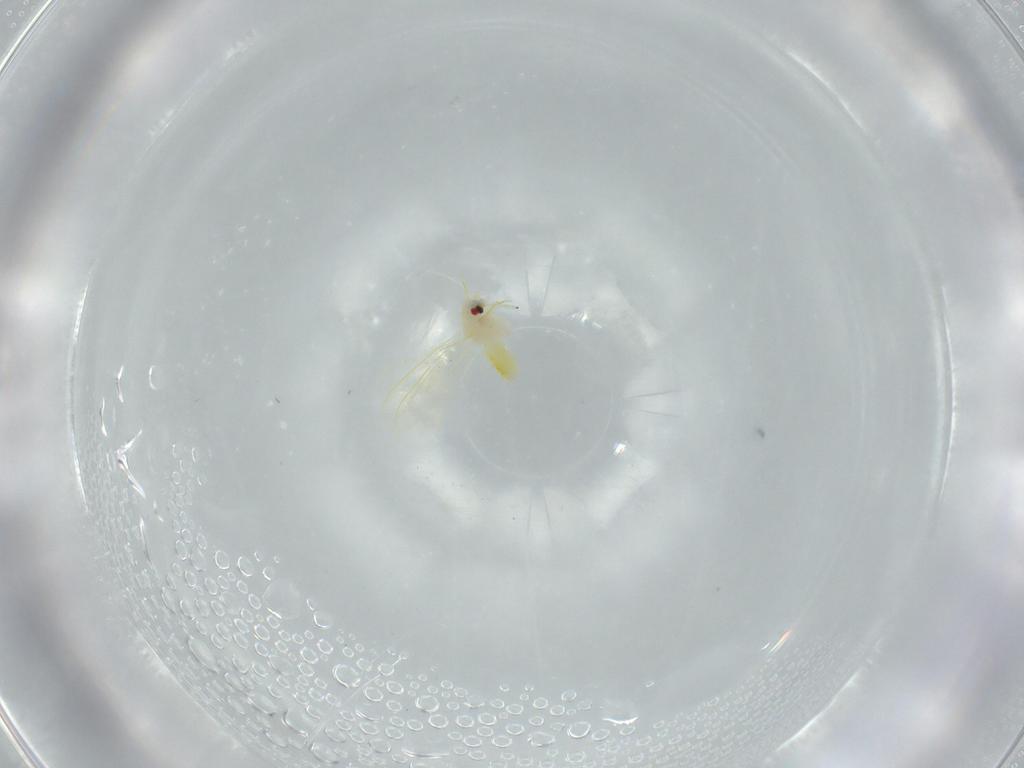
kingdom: Animalia
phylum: Arthropoda
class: Insecta
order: Hemiptera
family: Aleyrodidae
